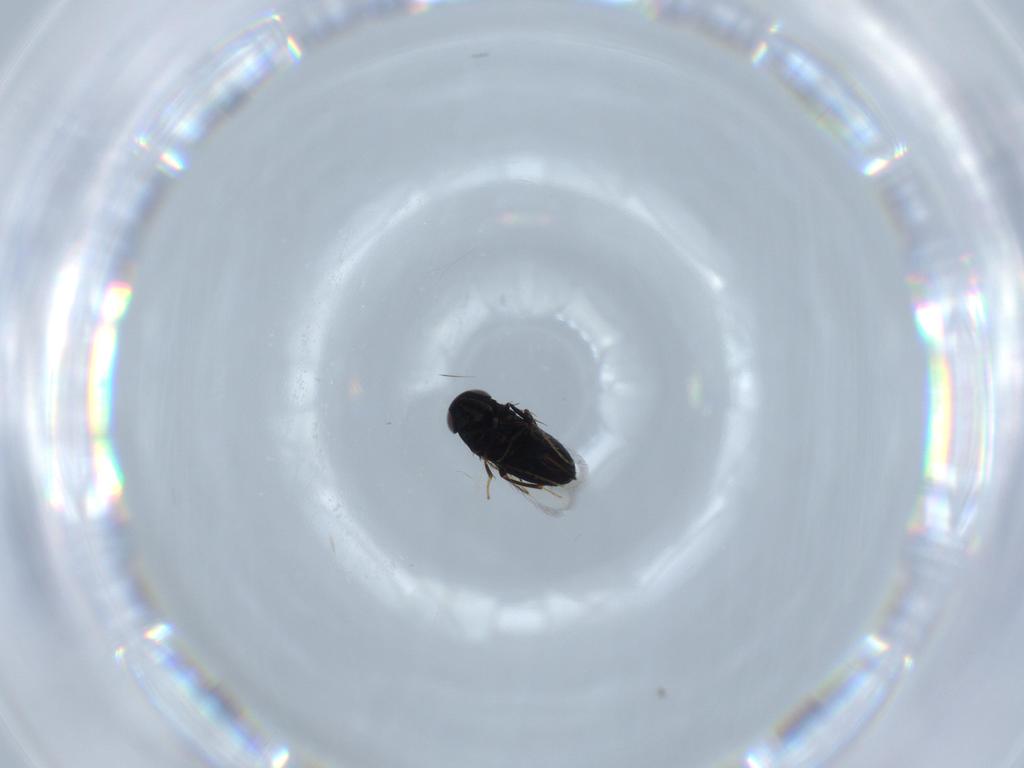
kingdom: Animalia
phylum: Arthropoda
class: Insecta
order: Hymenoptera
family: Signiphoridae
